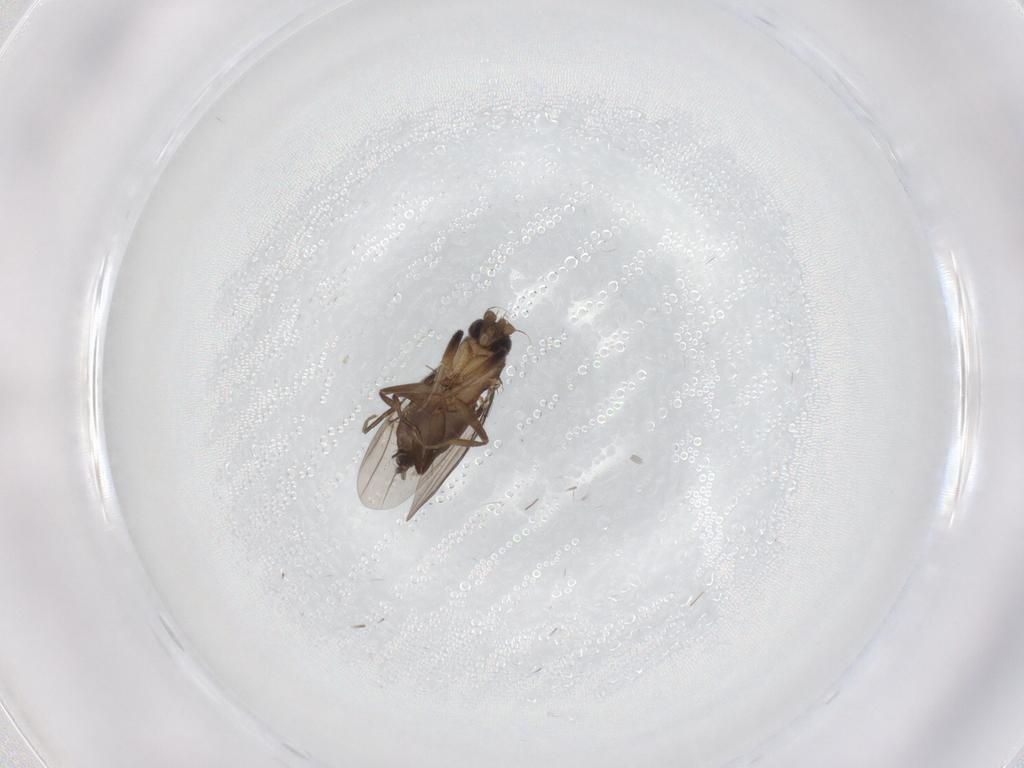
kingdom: Animalia
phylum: Arthropoda
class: Insecta
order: Diptera
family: Phoridae
